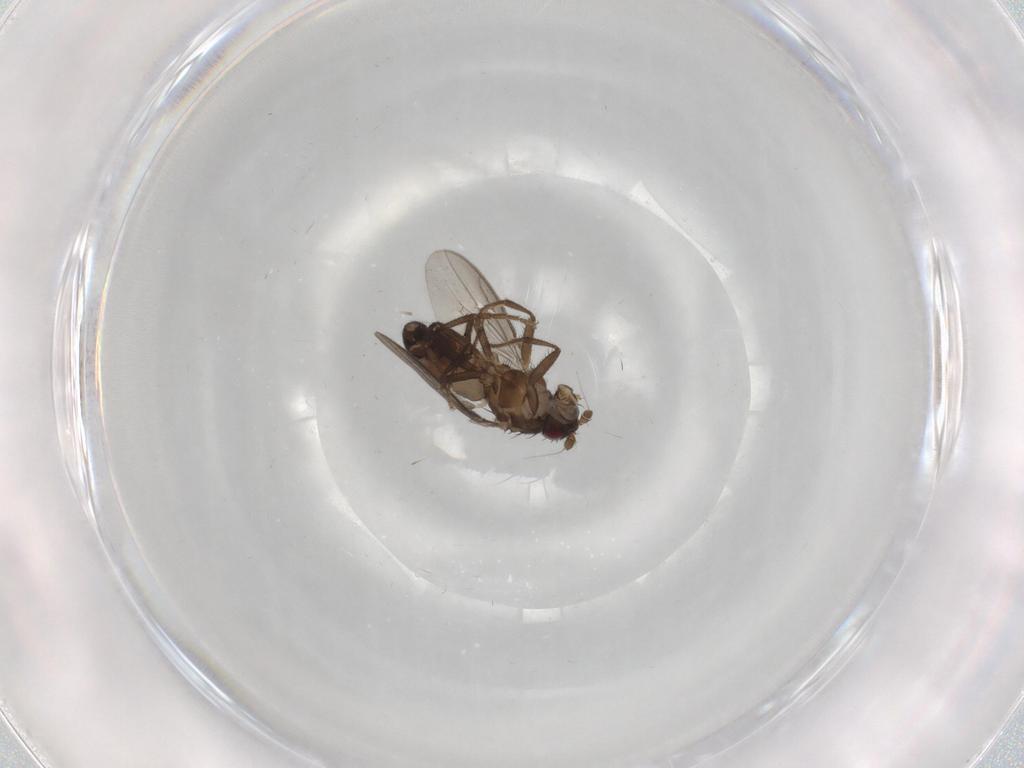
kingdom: Animalia
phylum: Arthropoda
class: Insecta
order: Diptera
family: Sphaeroceridae
